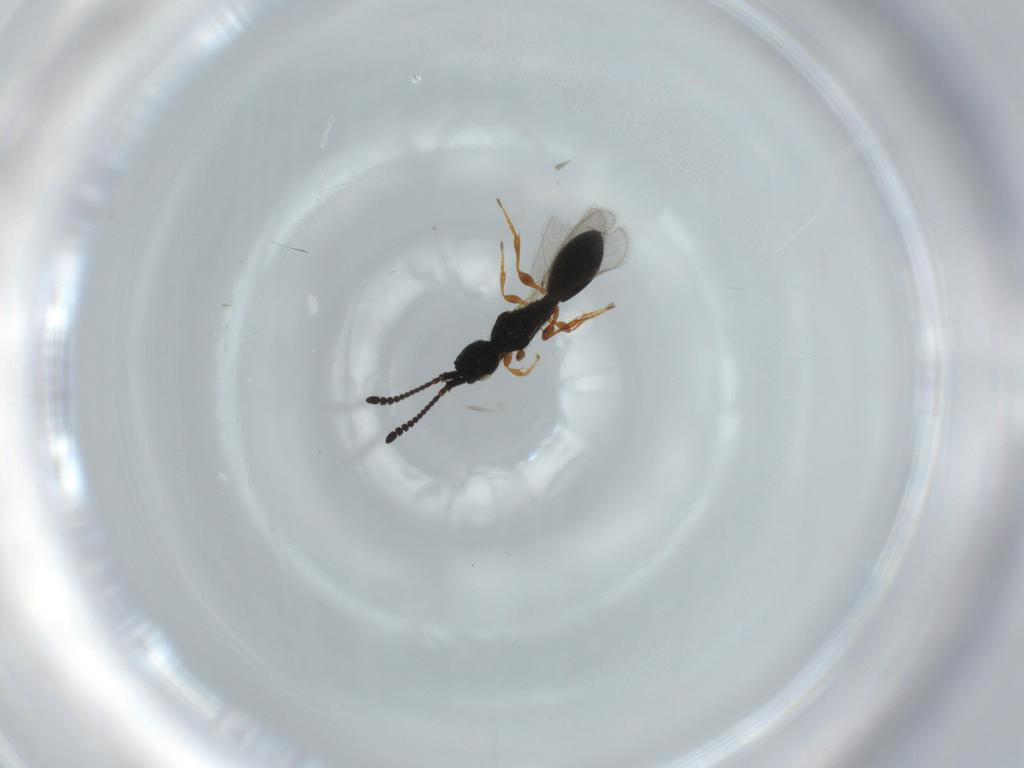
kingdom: Animalia
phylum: Arthropoda
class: Insecta
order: Hymenoptera
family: Diapriidae
